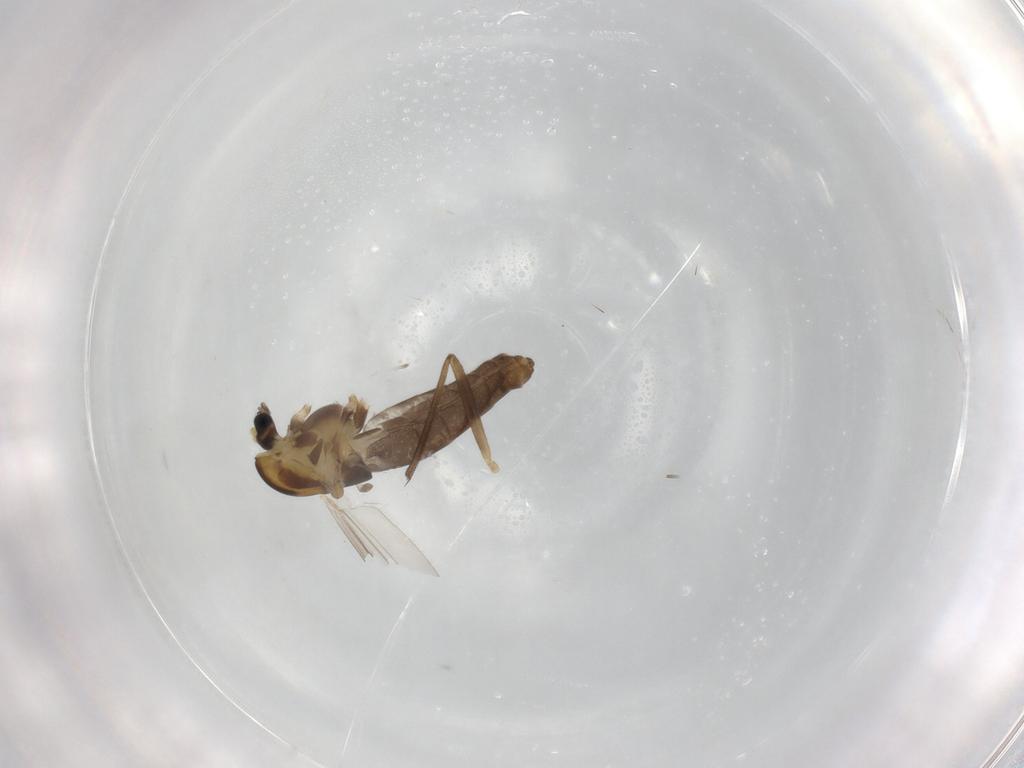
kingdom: Animalia
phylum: Arthropoda
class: Insecta
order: Diptera
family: Chironomidae
